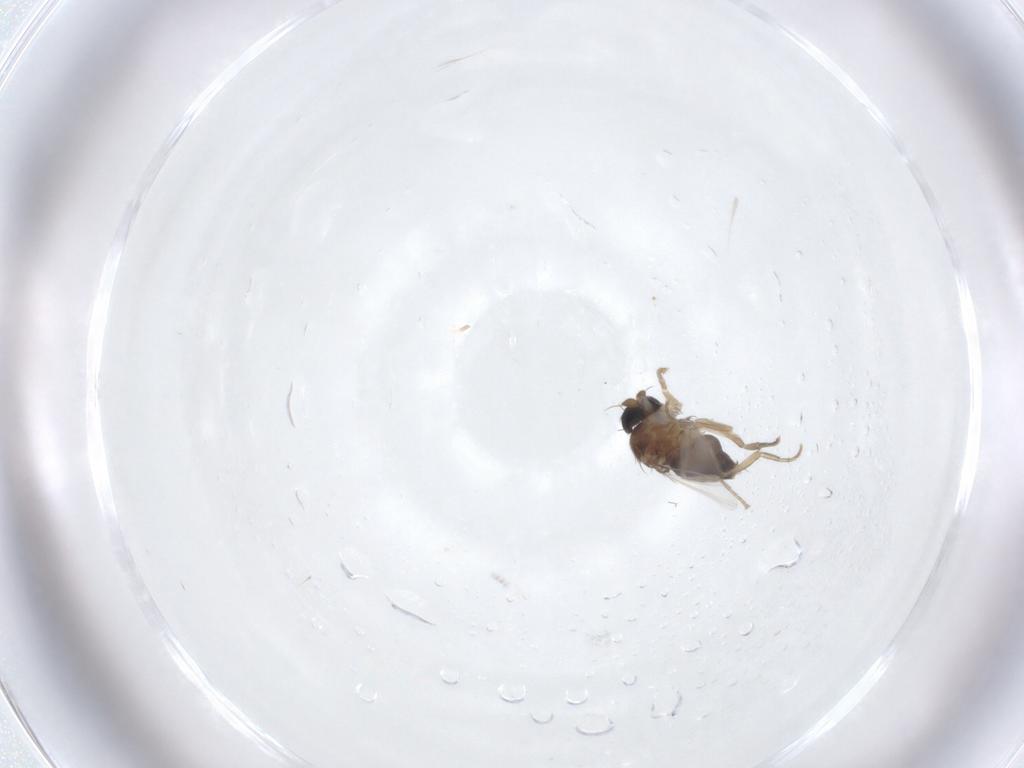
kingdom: Animalia
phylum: Arthropoda
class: Insecta
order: Diptera
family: Phoridae
